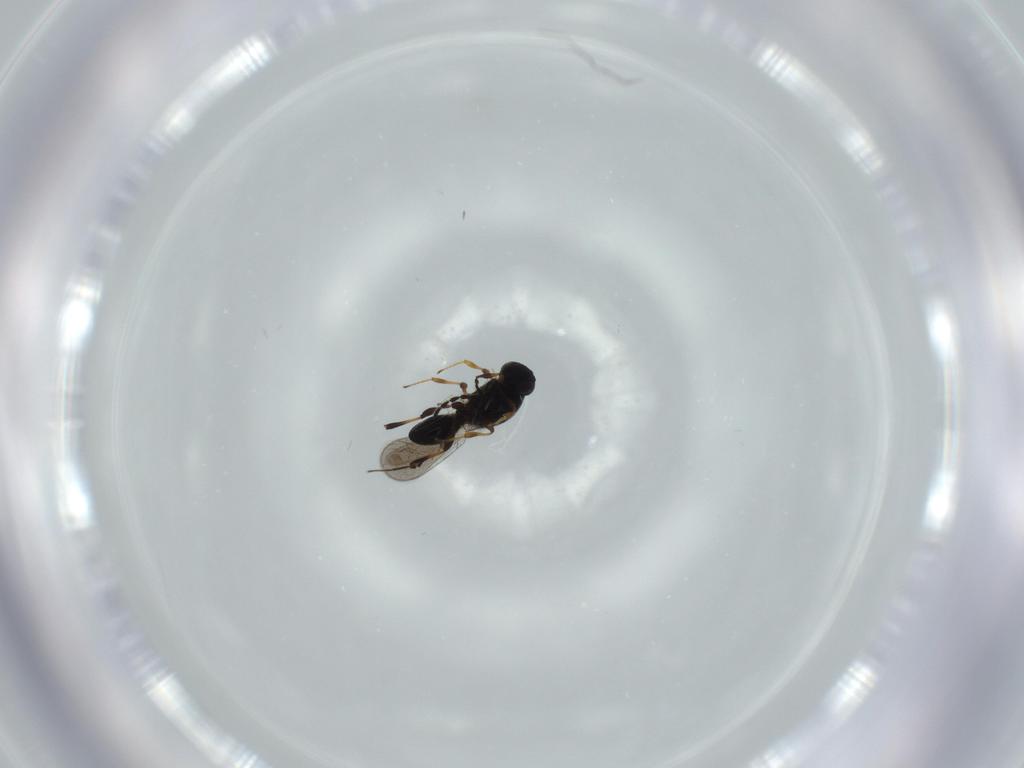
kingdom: Animalia
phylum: Arthropoda
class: Insecta
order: Hymenoptera
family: Platygastridae
